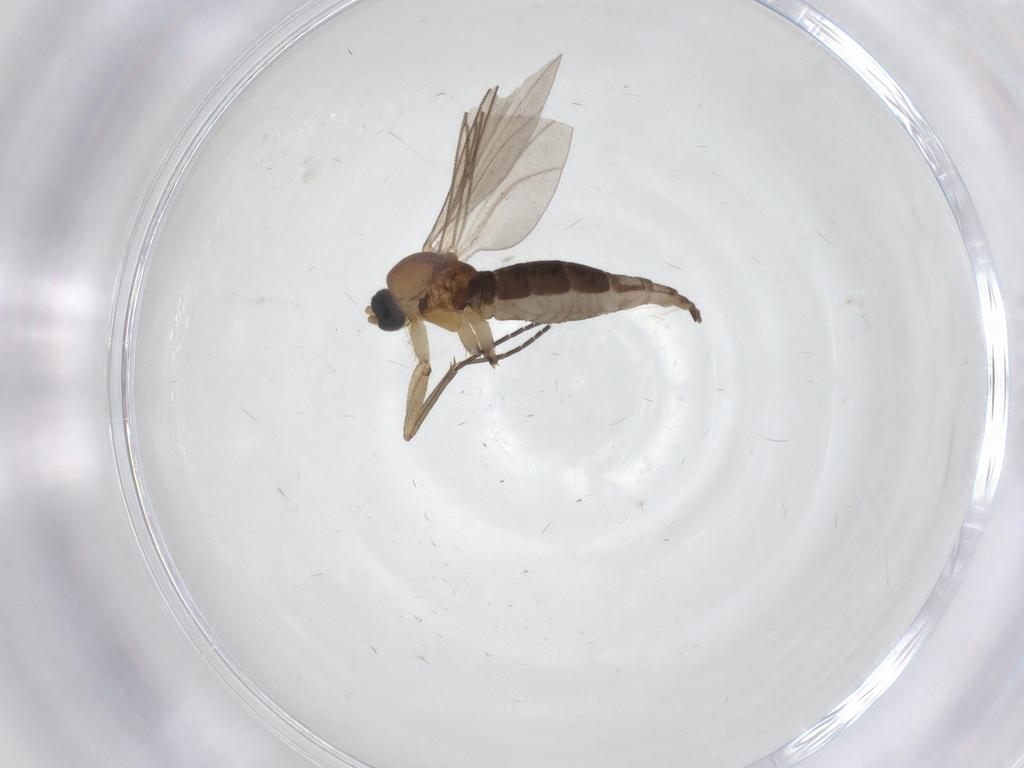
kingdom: Animalia
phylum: Arthropoda
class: Insecta
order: Diptera
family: Sciaridae
